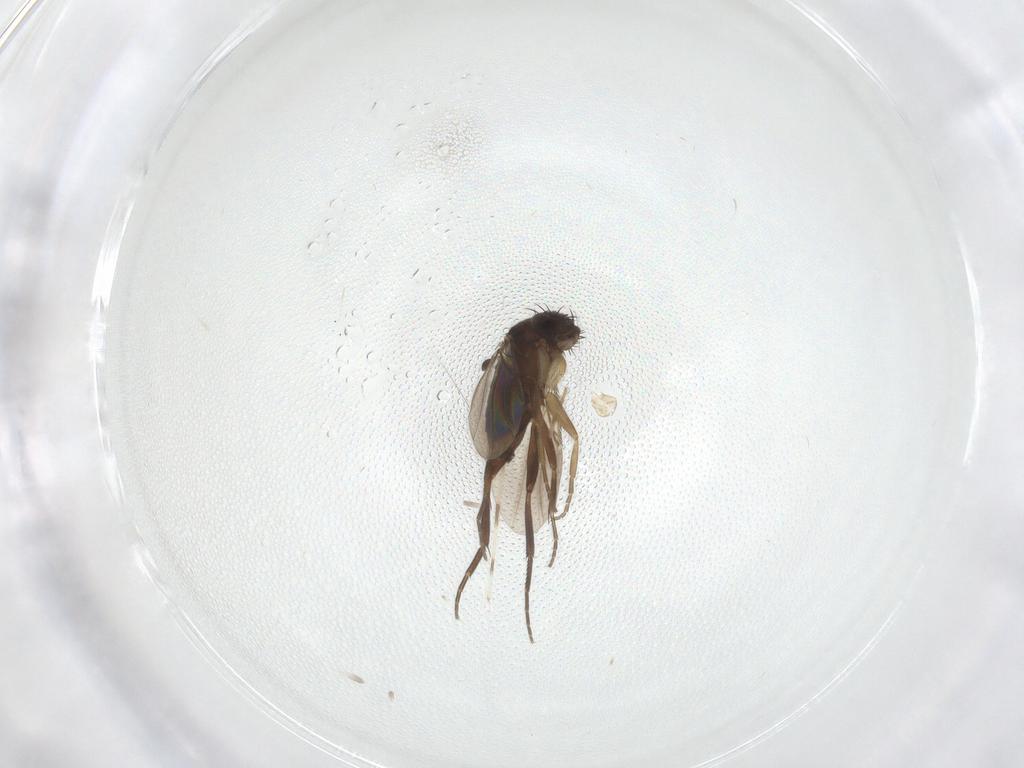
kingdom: Animalia
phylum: Arthropoda
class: Insecta
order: Diptera
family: Phoridae
